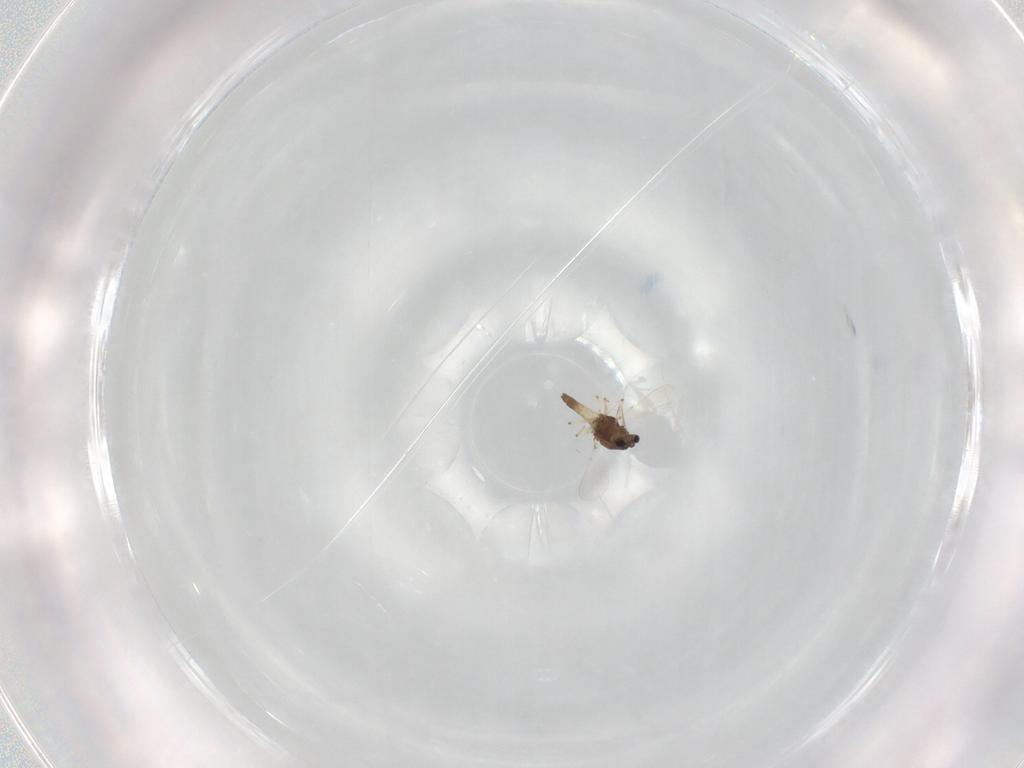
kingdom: Animalia
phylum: Arthropoda
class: Insecta
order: Diptera
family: Chironomidae
